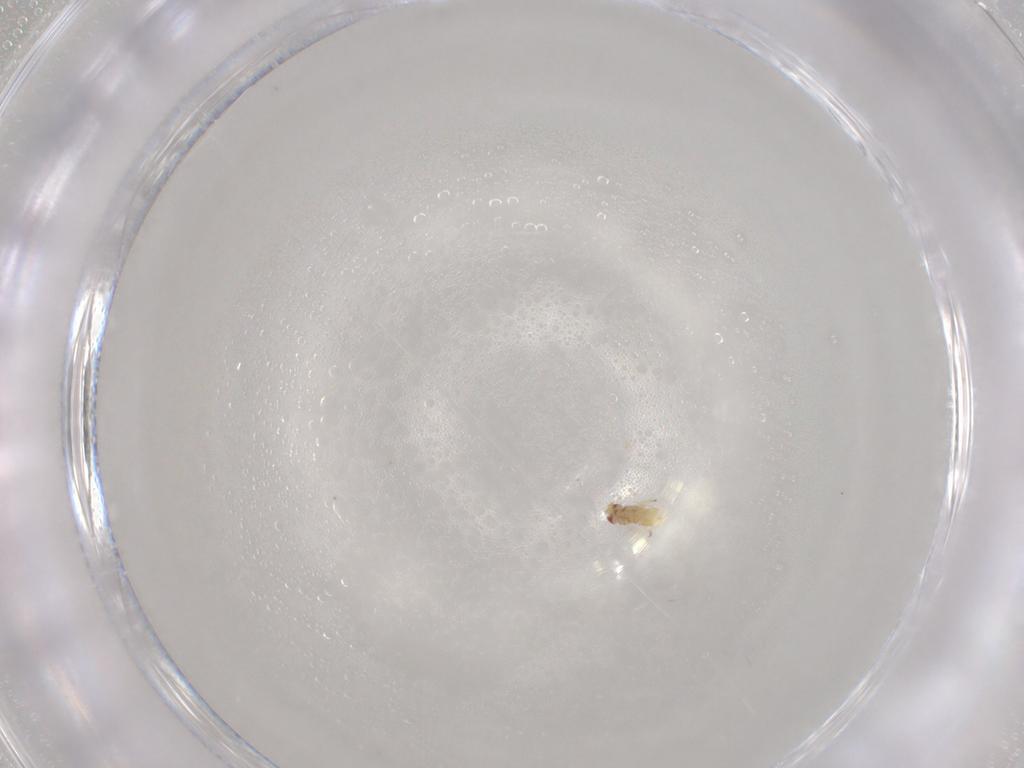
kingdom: Animalia
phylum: Arthropoda
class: Insecta
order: Diptera
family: Calliphoridae
